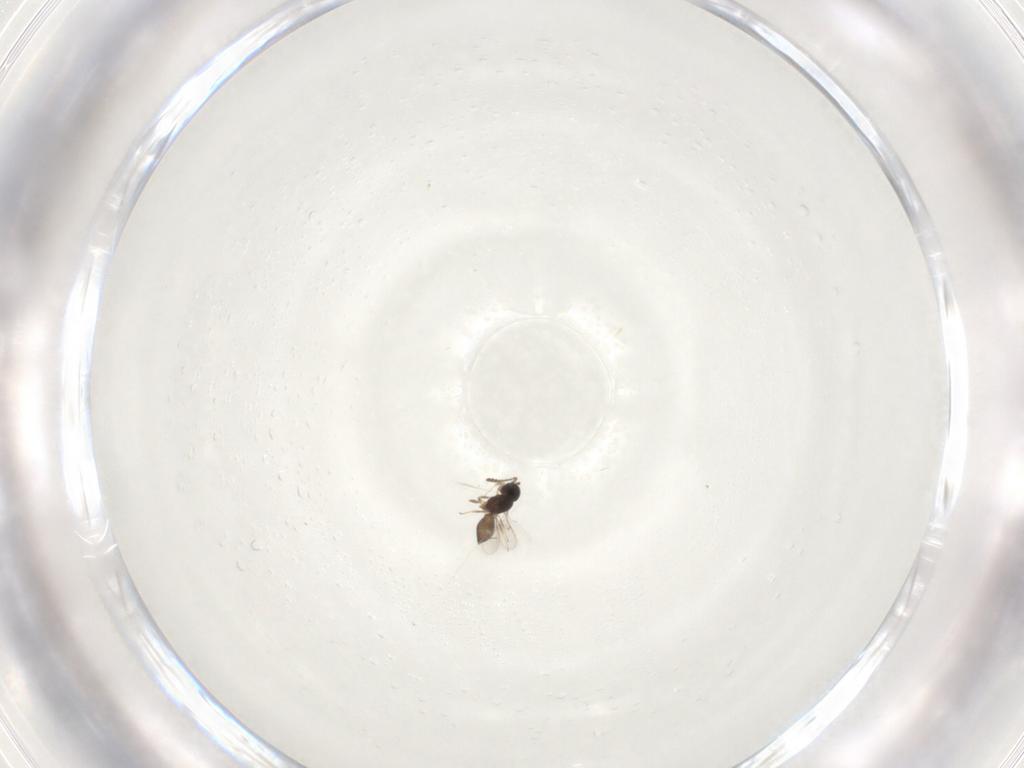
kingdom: Animalia
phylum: Arthropoda
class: Insecta
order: Hymenoptera
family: Scelionidae
